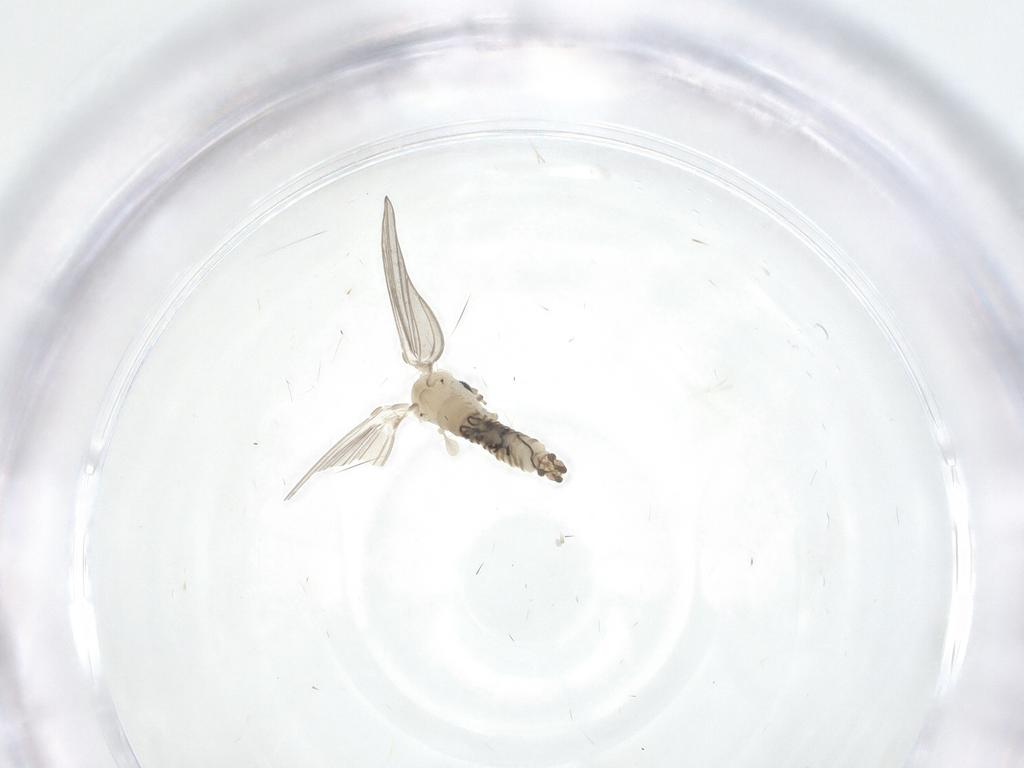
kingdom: Animalia
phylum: Arthropoda
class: Insecta
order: Diptera
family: Psychodidae
